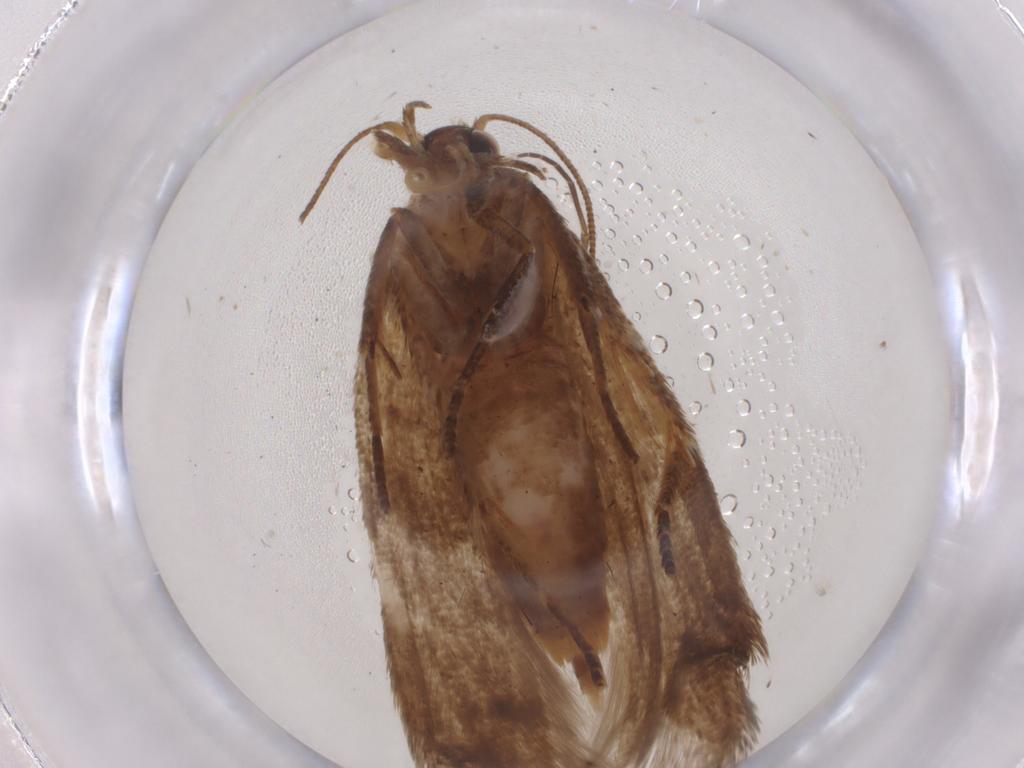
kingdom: Animalia
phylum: Arthropoda
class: Insecta
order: Lepidoptera
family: Blastobasidae
